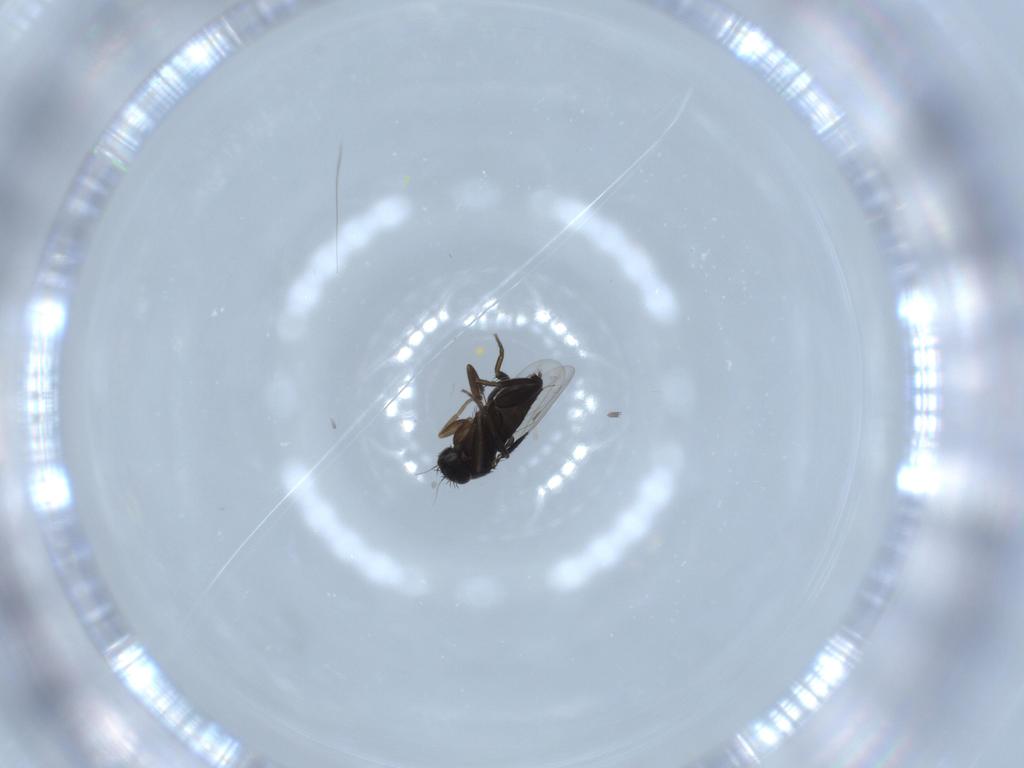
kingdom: Animalia
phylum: Arthropoda
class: Insecta
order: Diptera
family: Phoridae
